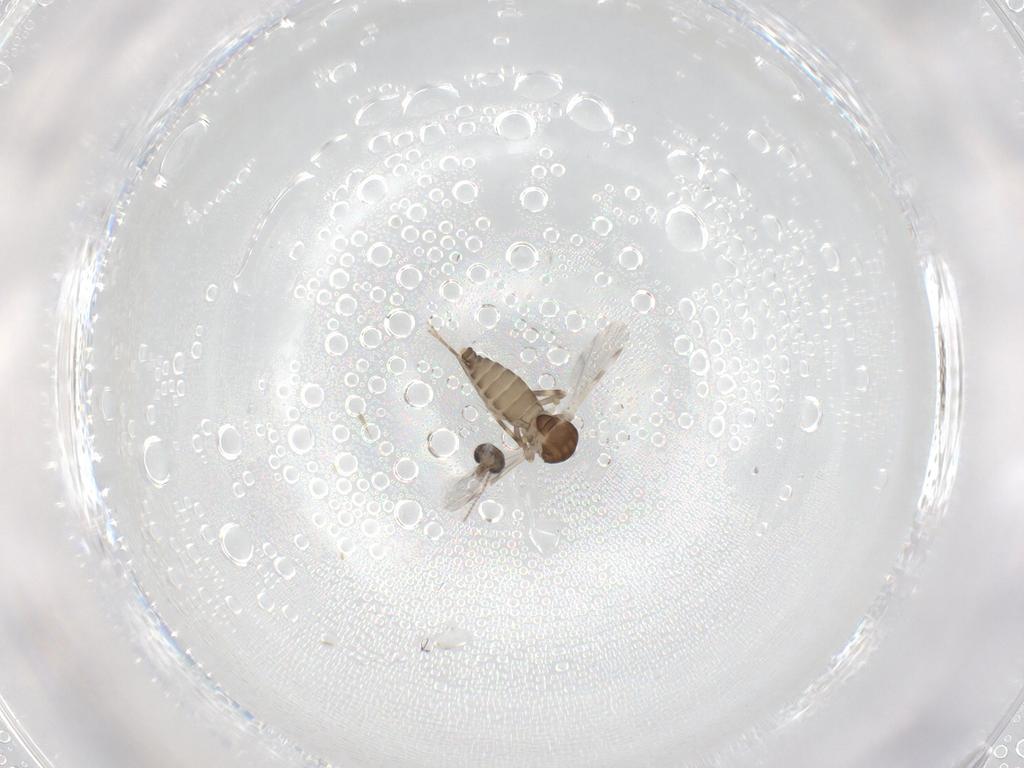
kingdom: Animalia
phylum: Arthropoda
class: Insecta
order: Diptera
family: Ceratopogonidae
